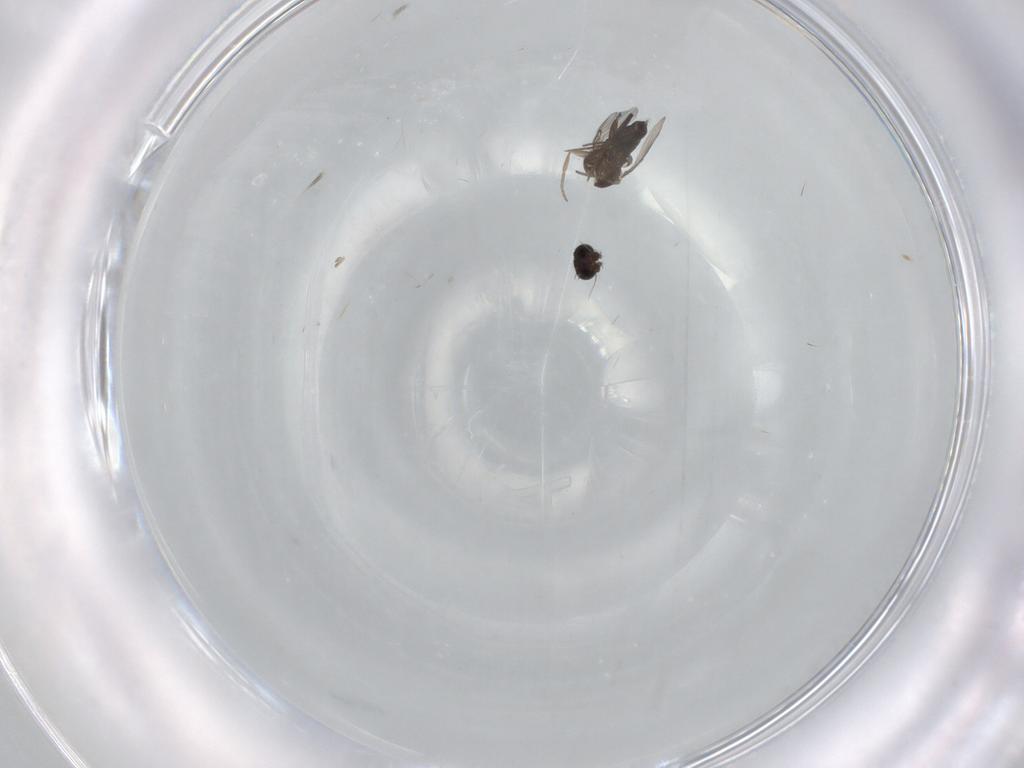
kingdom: Animalia
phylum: Arthropoda
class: Insecta
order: Diptera
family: Phoridae
